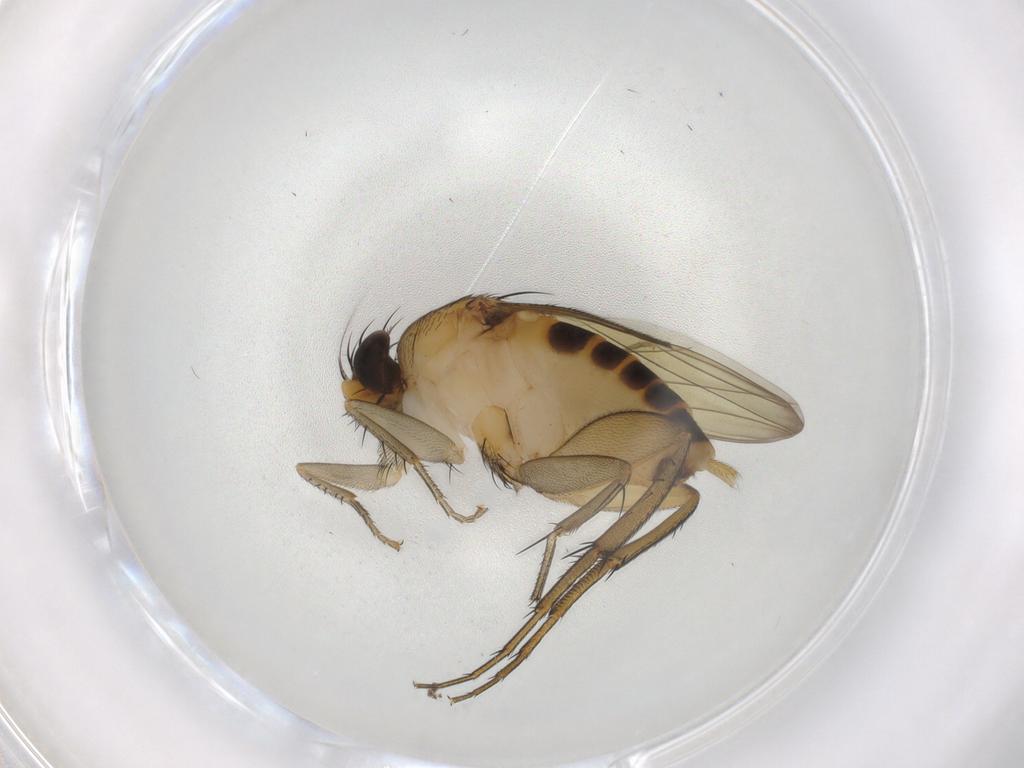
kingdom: Animalia
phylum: Arthropoda
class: Insecta
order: Diptera
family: Phoridae
